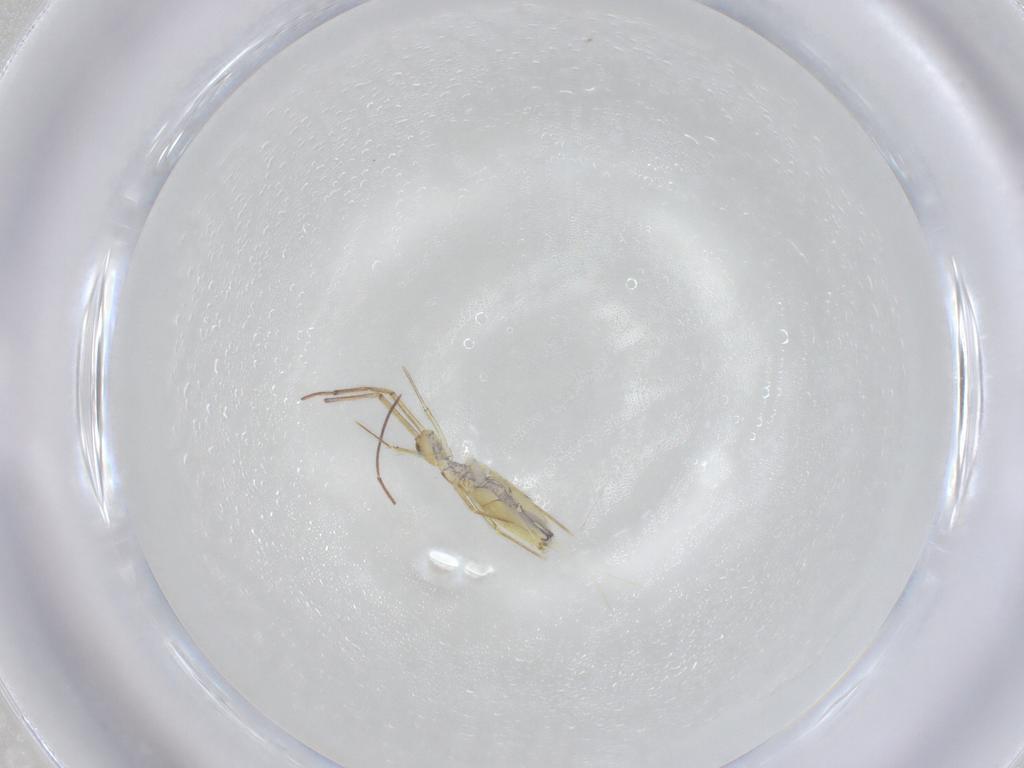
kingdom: Animalia
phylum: Arthropoda
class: Collembola
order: Entomobryomorpha
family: Entomobryidae
